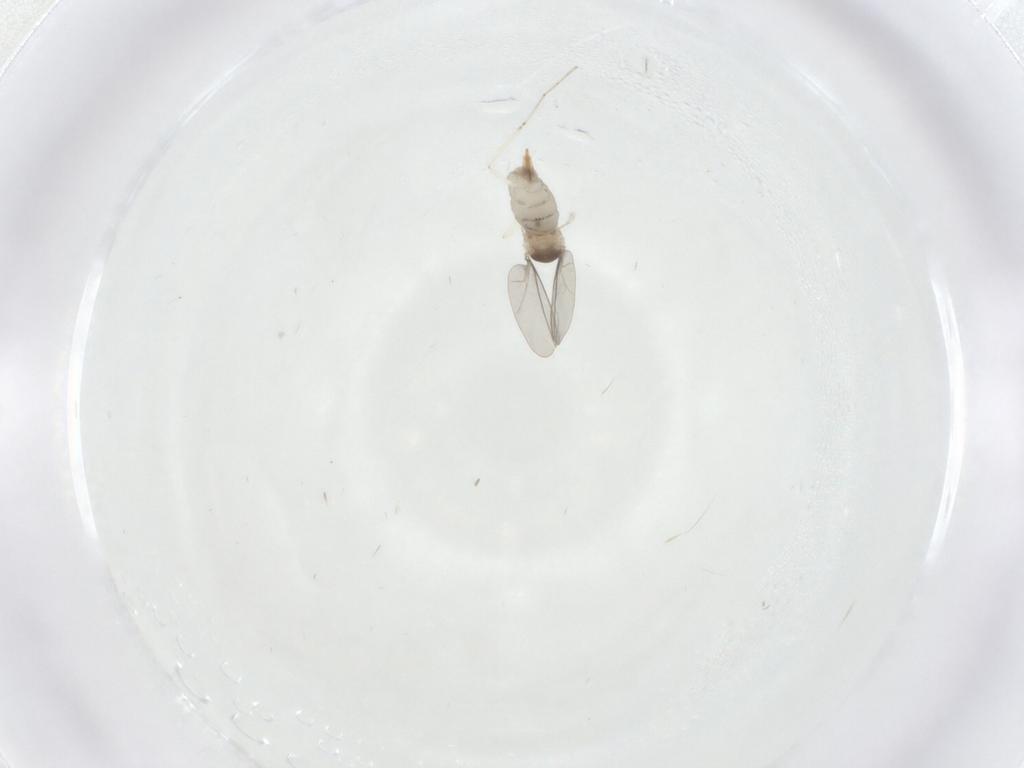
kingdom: Animalia
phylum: Arthropoda
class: Insecta
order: Diptera
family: Cecidomyiidae
